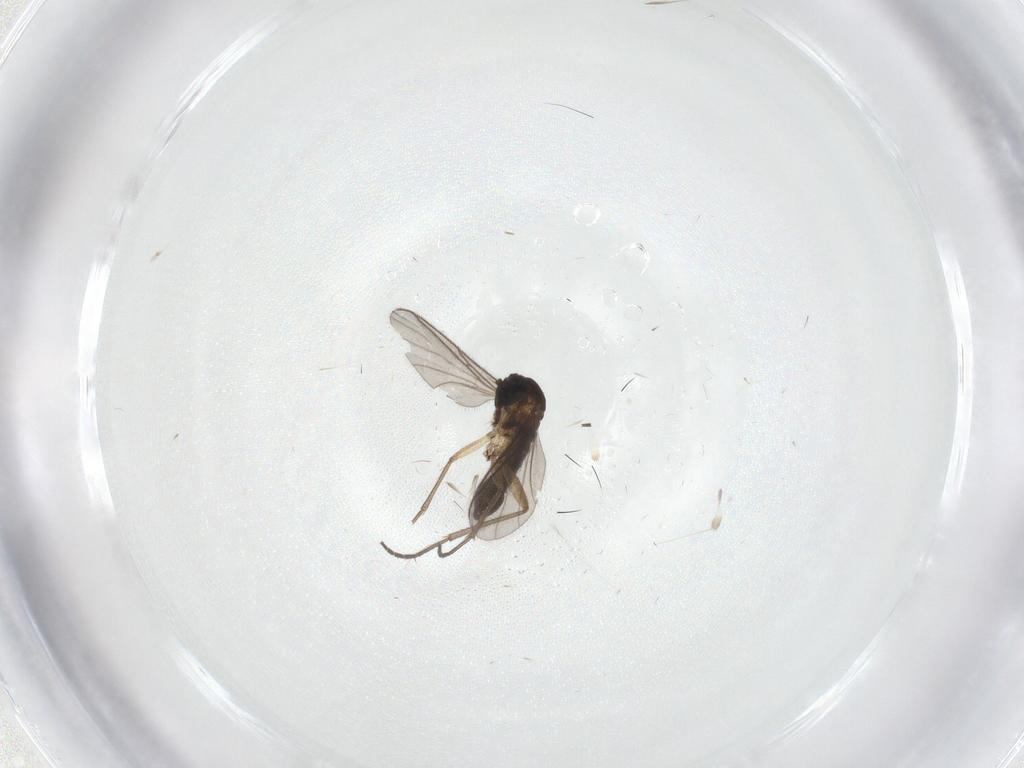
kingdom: Animalia
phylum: Arthropoda
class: Insecta
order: Diptera
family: Sciaridae
